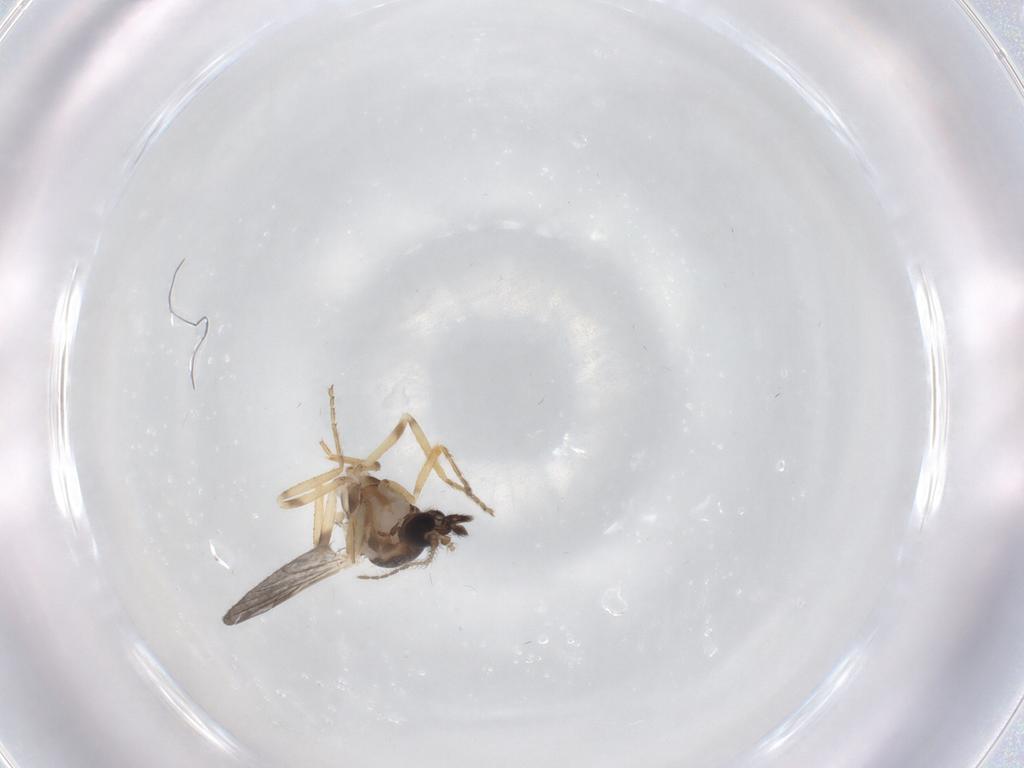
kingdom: Animalia
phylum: Arthropoda
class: Insecta
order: Diptera
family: Ceratopogonidae
